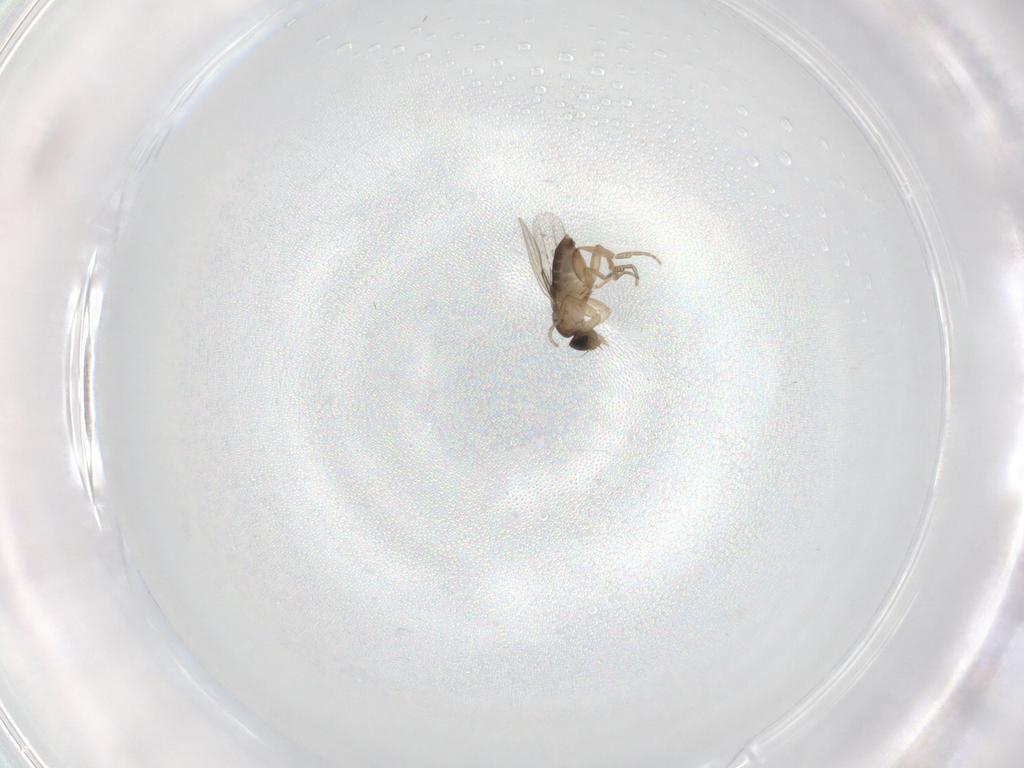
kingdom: Animalia
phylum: Arthropoda
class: Insecta
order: Diptera
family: Phoridae
